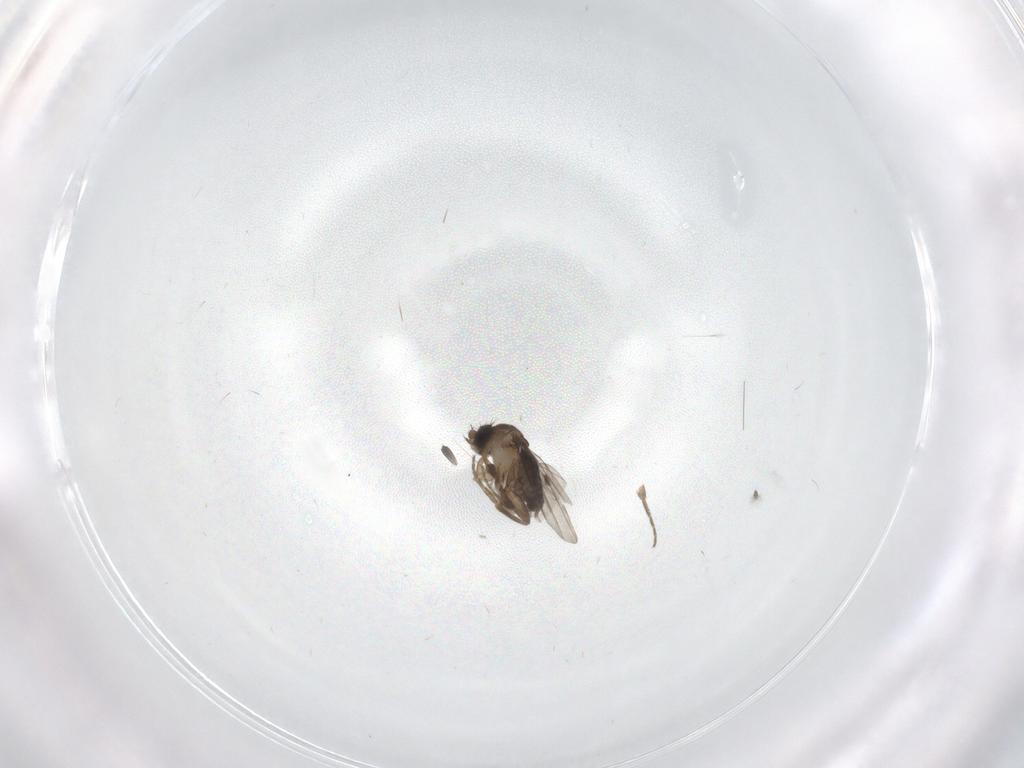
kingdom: Animalia
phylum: Arthropoda
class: Insecta
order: Diptera
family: Phoridae
